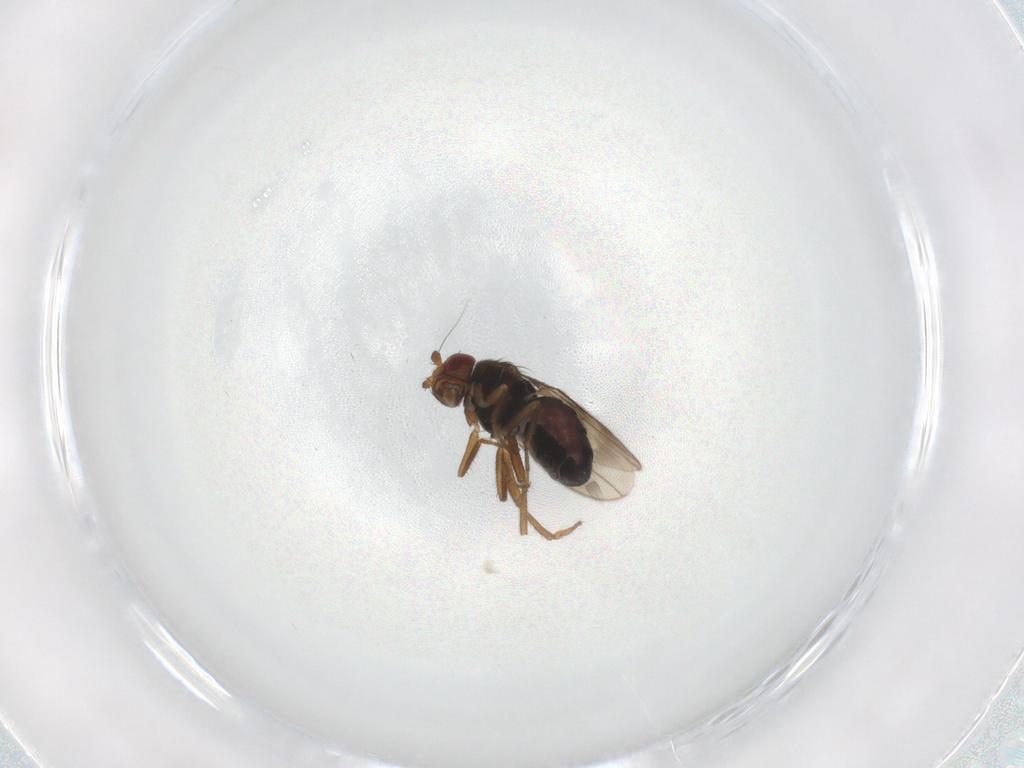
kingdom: Animalia
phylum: Arthropoda
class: Insecta
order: Diptera
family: Sphaeroceridae
